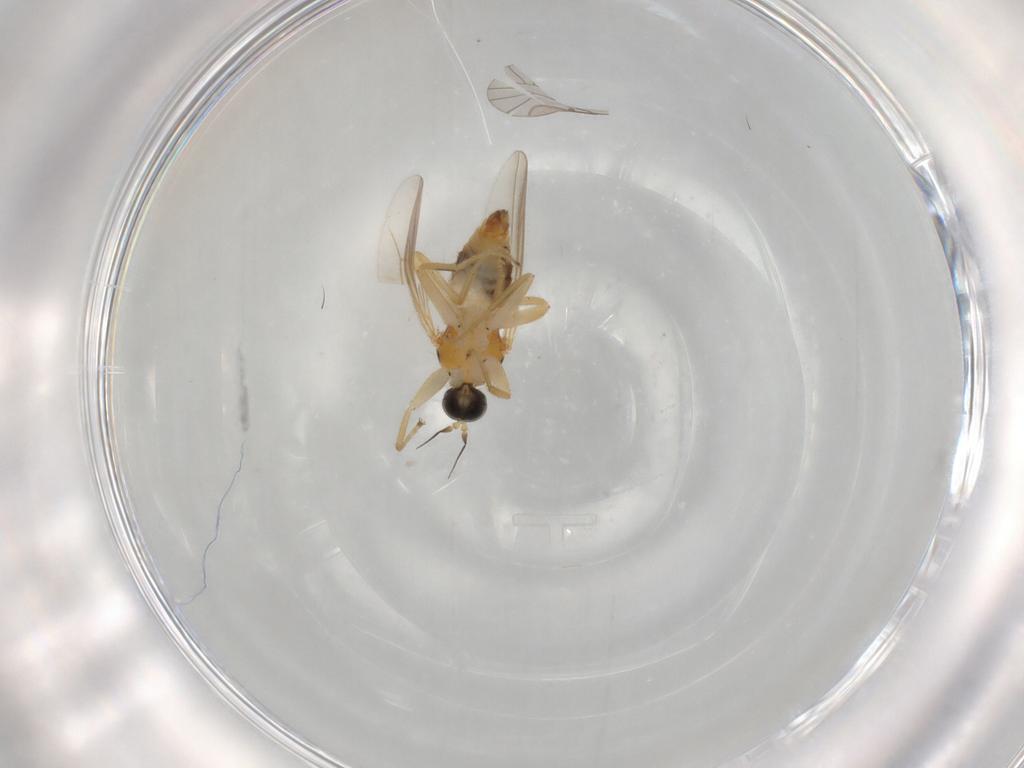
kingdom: Animalia
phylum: Arthropoda
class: Insecta
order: Diptera
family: Hybotidae
